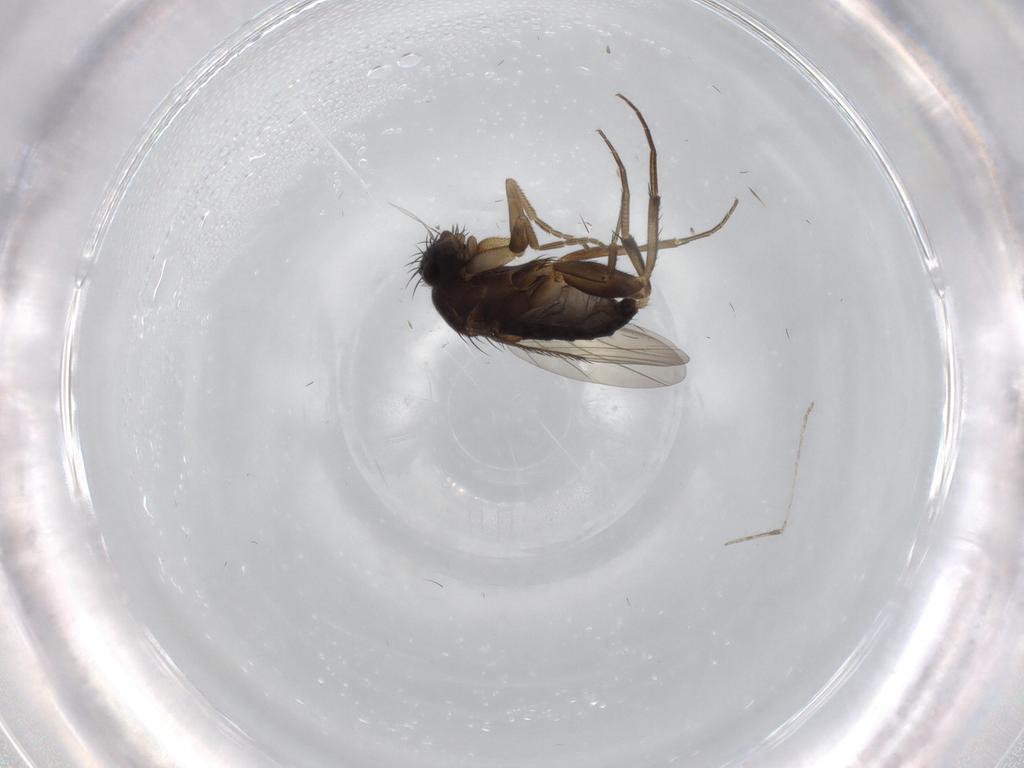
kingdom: Animalia
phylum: Arthropoda
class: Insecta
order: Diptera
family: Phoridae
